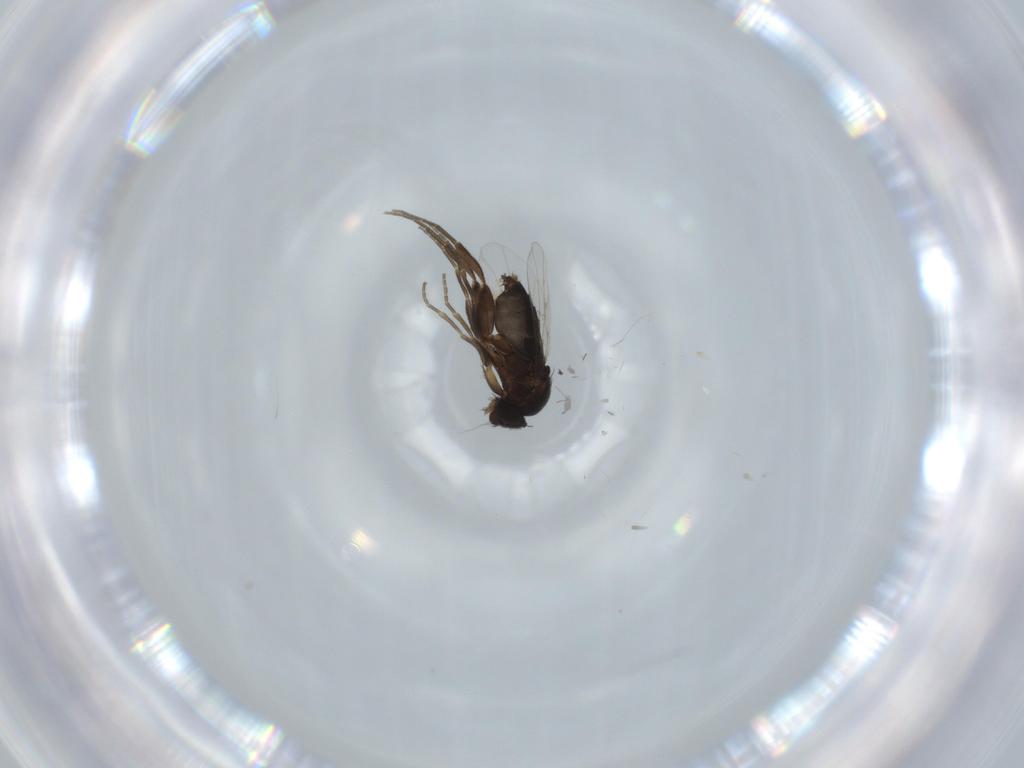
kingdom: Animalia
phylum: Arthropoda
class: Insecta
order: Diptera
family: Phoridae
